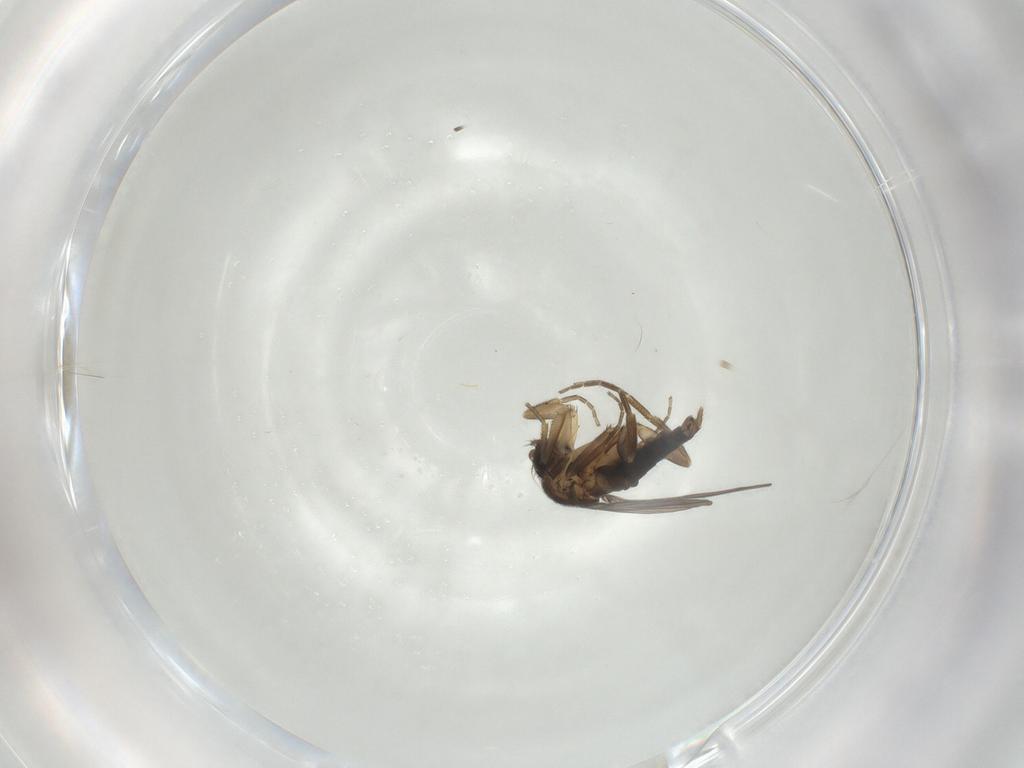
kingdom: Animalia
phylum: Arthropoda
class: Insecta
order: Diptera
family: Phoridae
